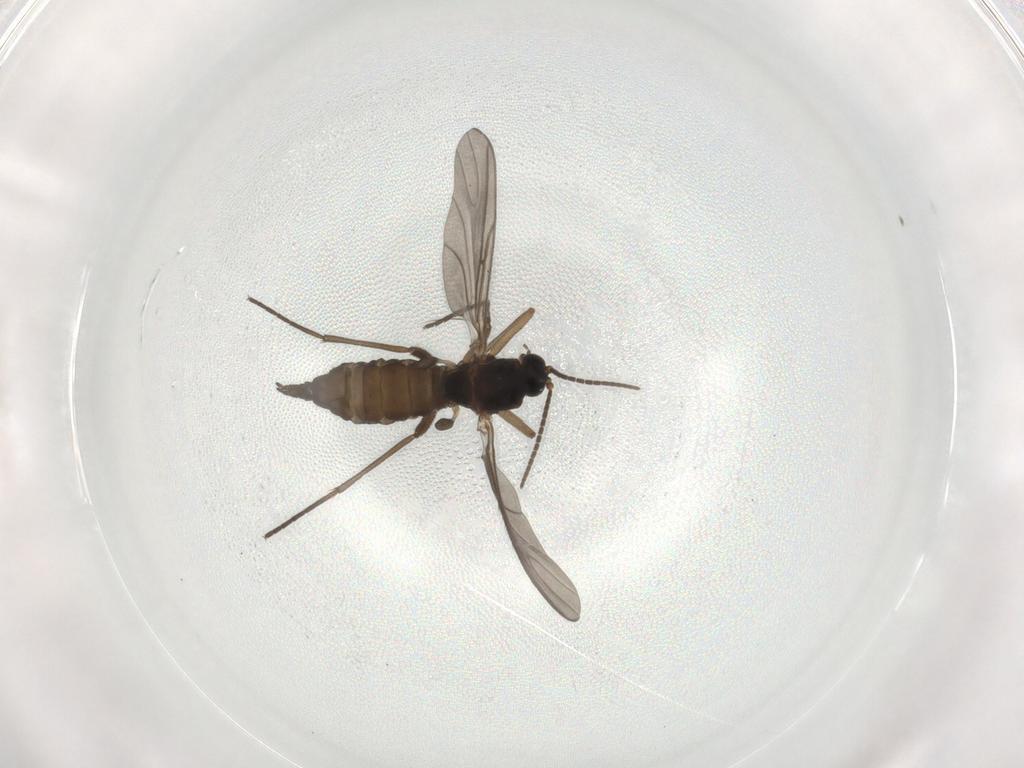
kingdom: Animalia
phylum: Arthropoda
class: Insecta
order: Diptera
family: Sciaridae
